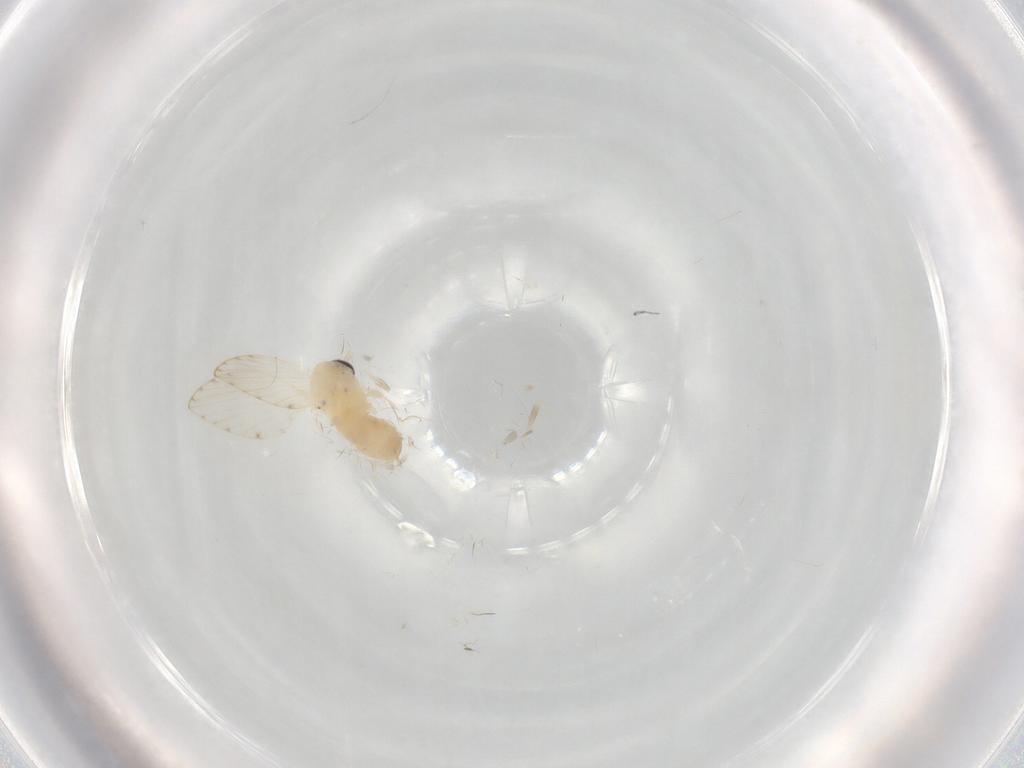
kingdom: Animalia
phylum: Arthropoda
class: Insecta
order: Diptera
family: Psychodidae
